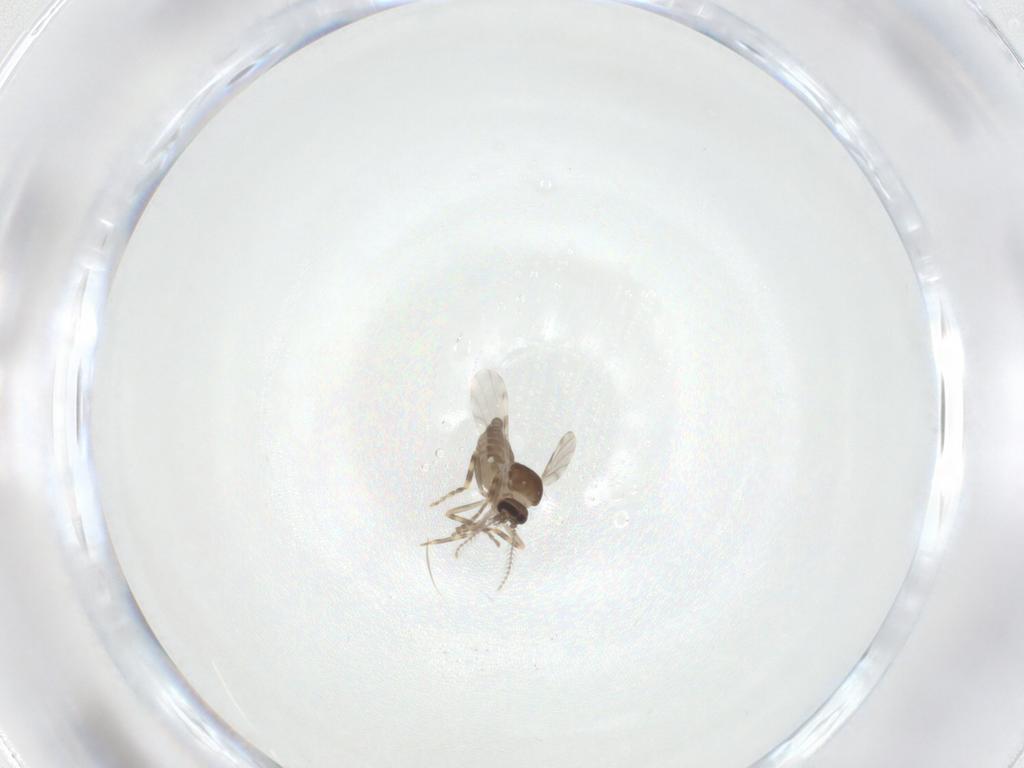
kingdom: Animalia
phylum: Arthropoda
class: Insecta
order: Diptera
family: Ceratopogonidae
